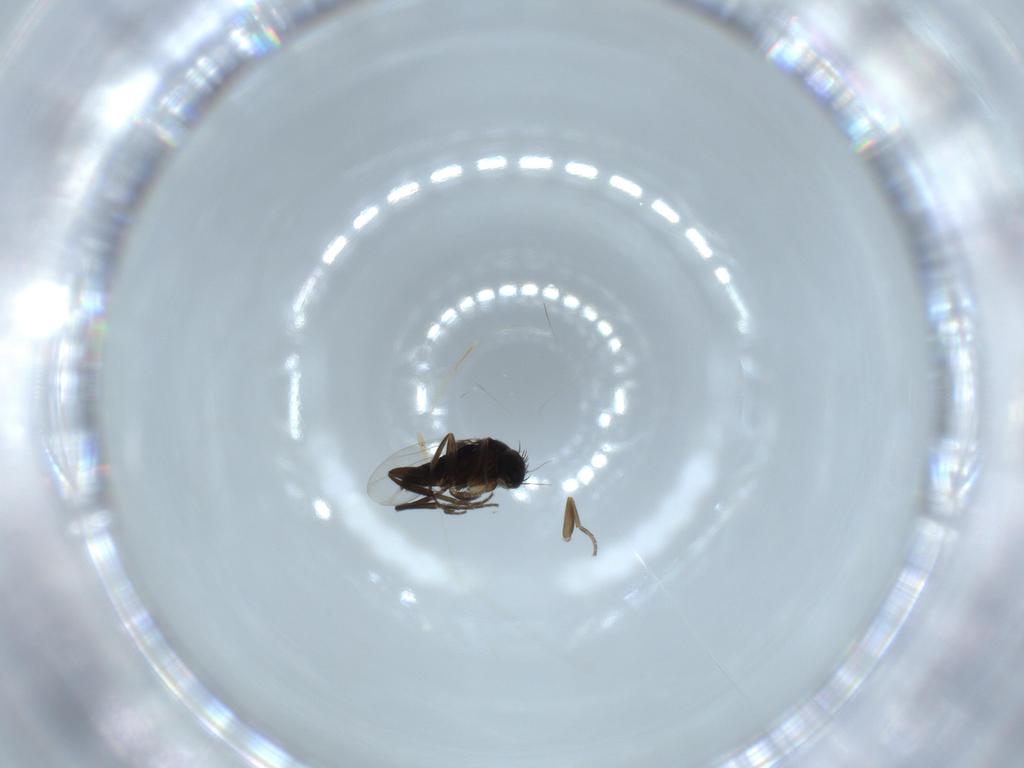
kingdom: Animalia
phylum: Arthropoda
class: Insecta
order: Diptera
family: Phoridae
